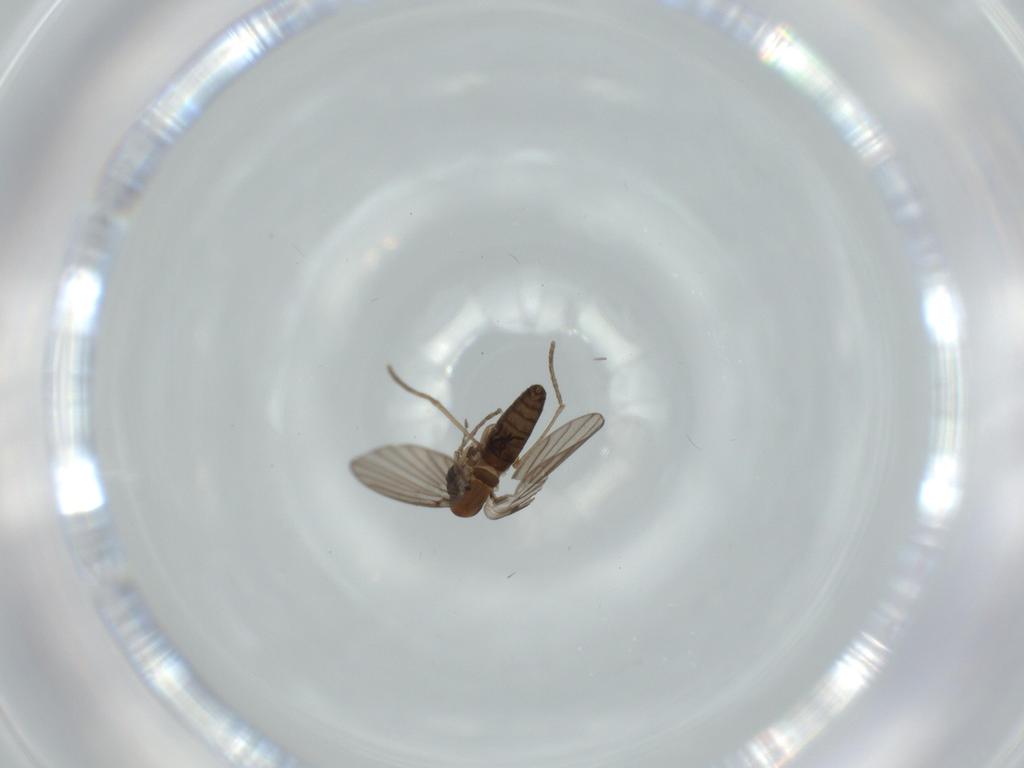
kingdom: Animalia
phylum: Arthropoda
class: Insecta
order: Diptera
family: Psychodidae
